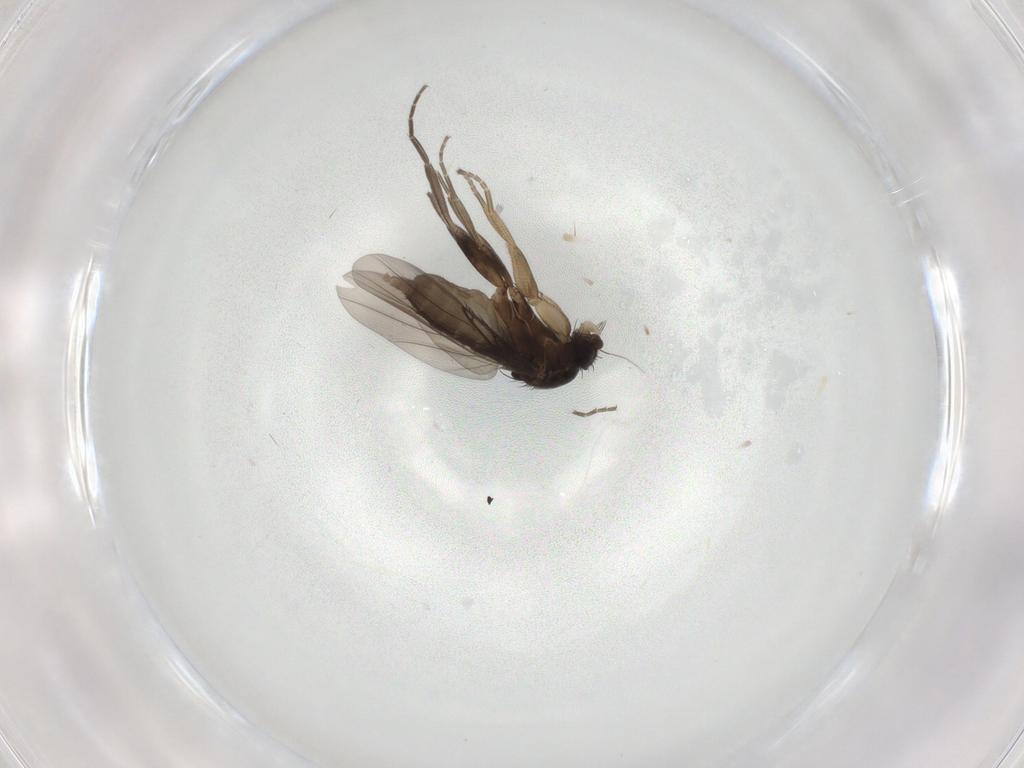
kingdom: Animalia
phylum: Arthropoda
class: Insecta
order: Diptera
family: Phoridae
